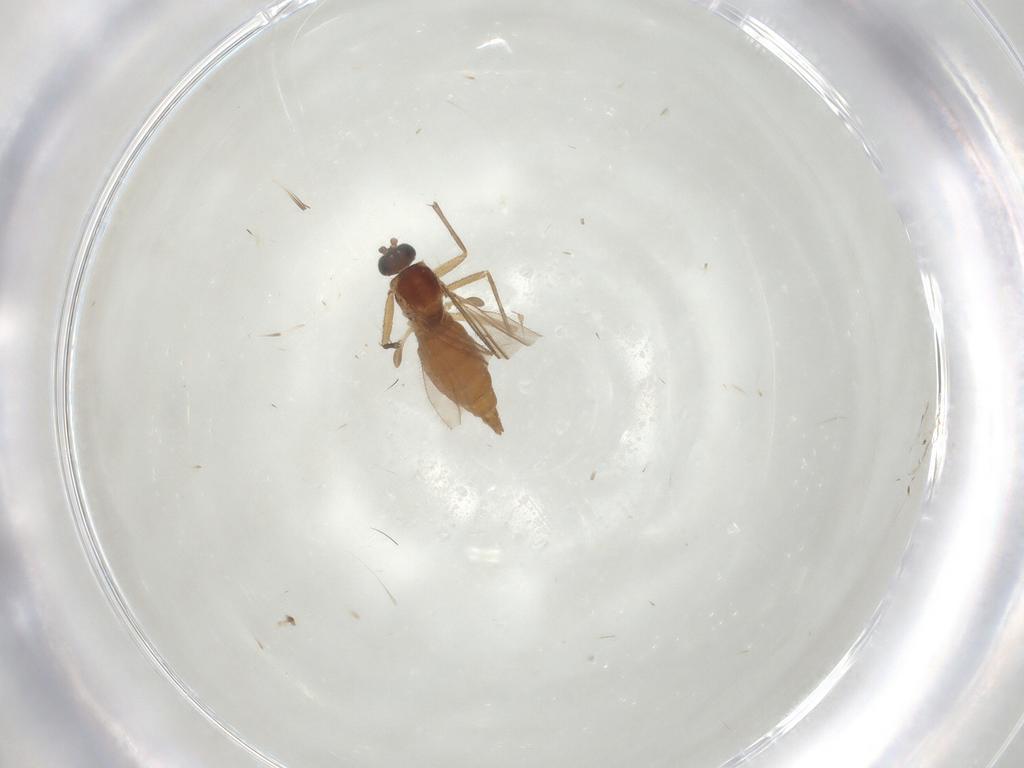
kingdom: Animalia
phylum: Arthropoda
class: Insecta
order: Diptera
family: Sciaridae
